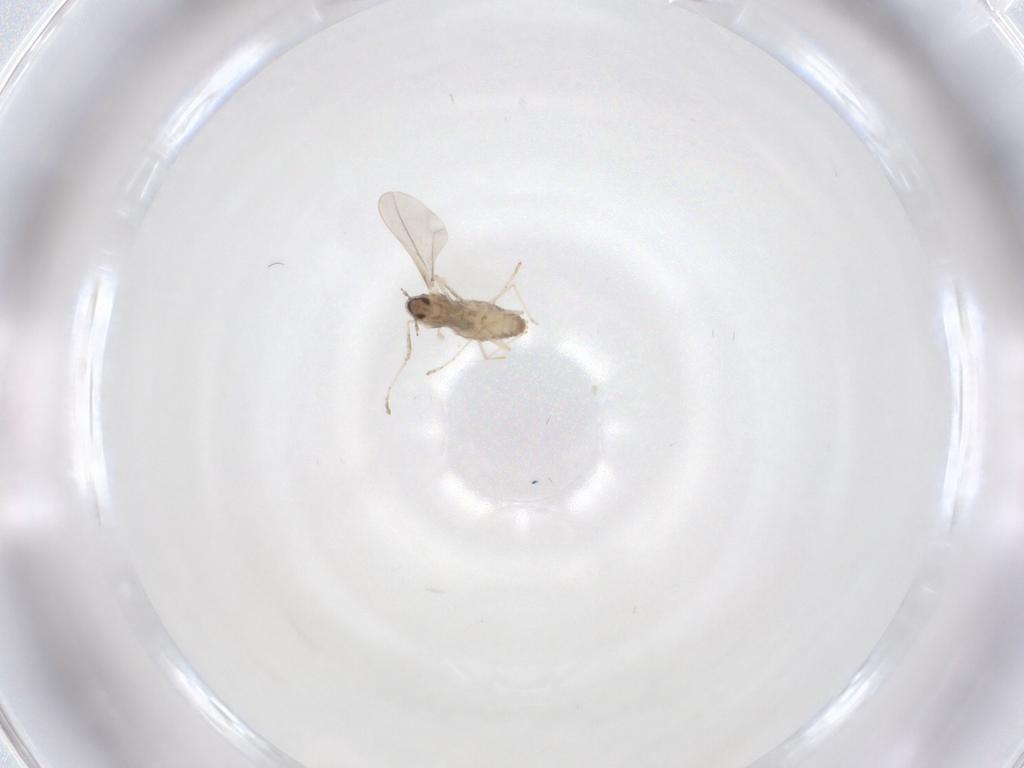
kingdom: Animalia
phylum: Arthropoda
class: Insecta
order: Diptera
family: Cecidomyiidae
